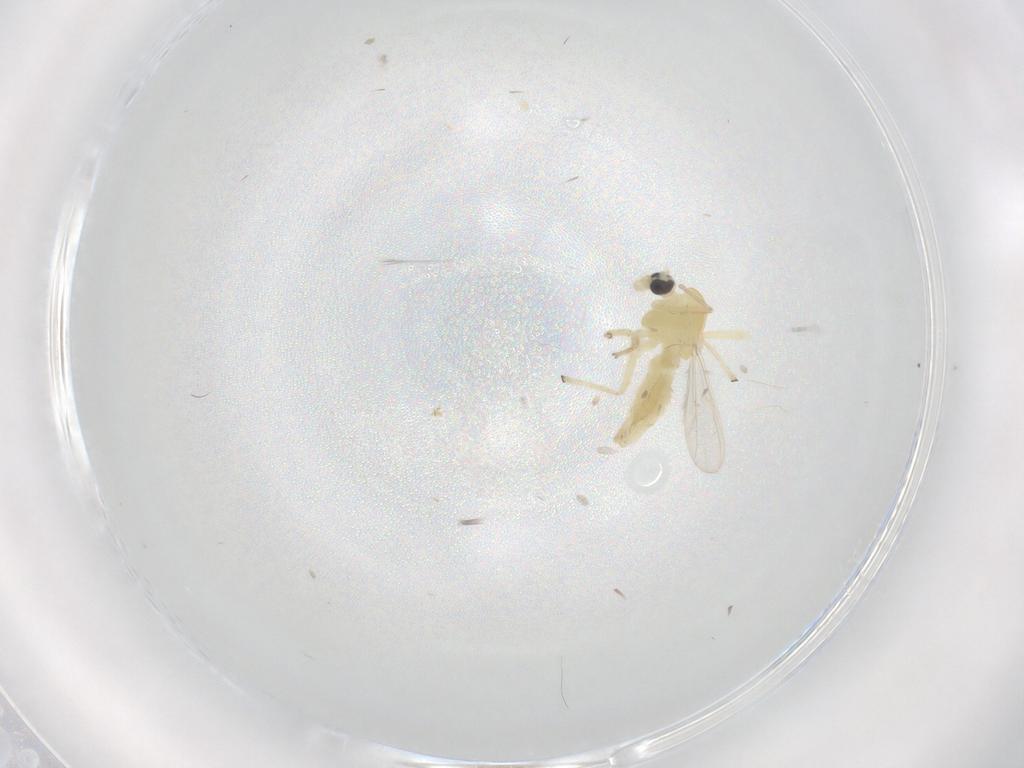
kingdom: Animalia
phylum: Arthropoda
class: Insecta
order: Diptera
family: Chironomidae
